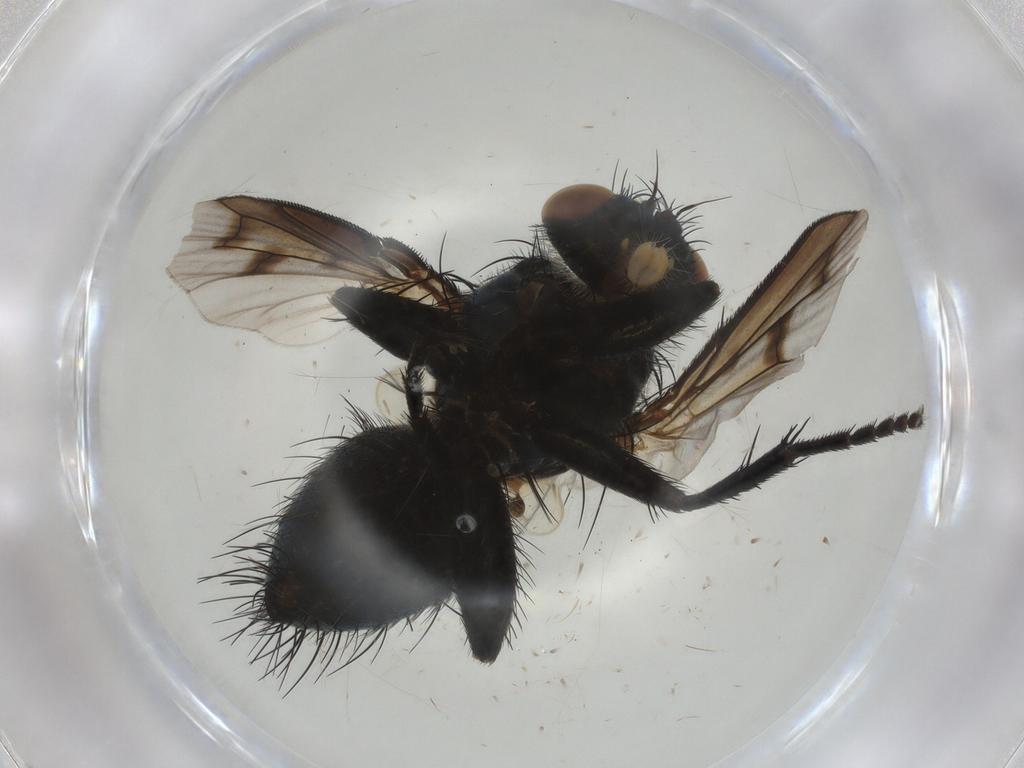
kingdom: Animalia
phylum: Arthropoda
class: Insecta
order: Diptera
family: Tachinidae
